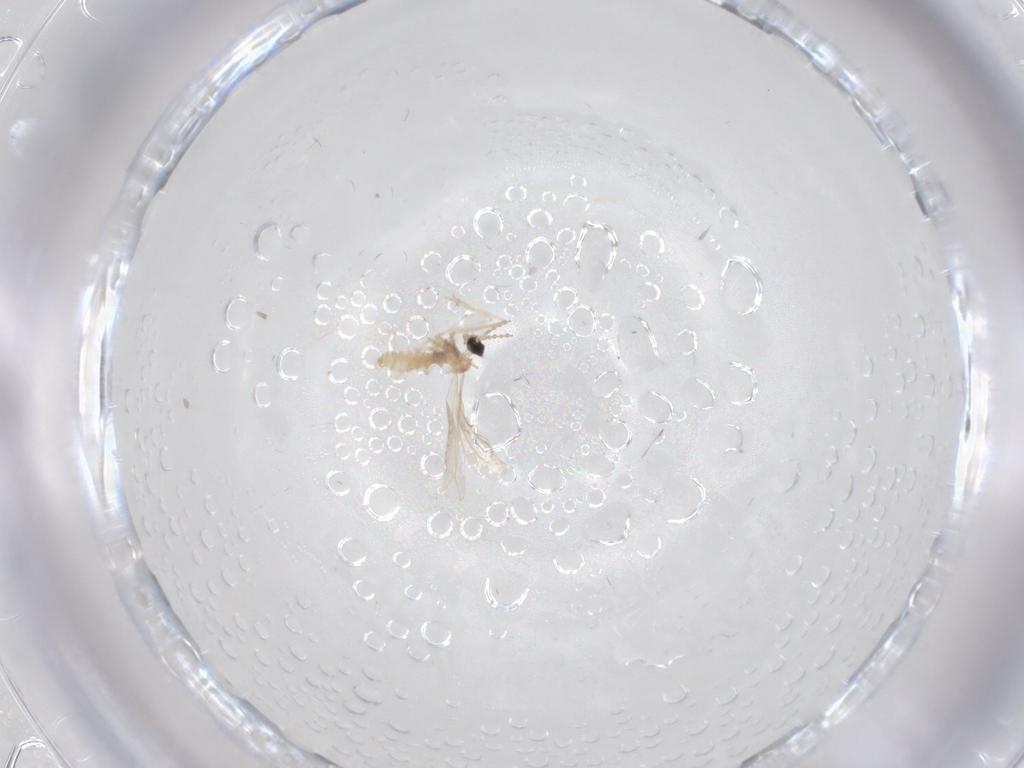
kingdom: Animalia
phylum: Arthropoda
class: Insecta
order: Diptera
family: Cecidomyiidae
